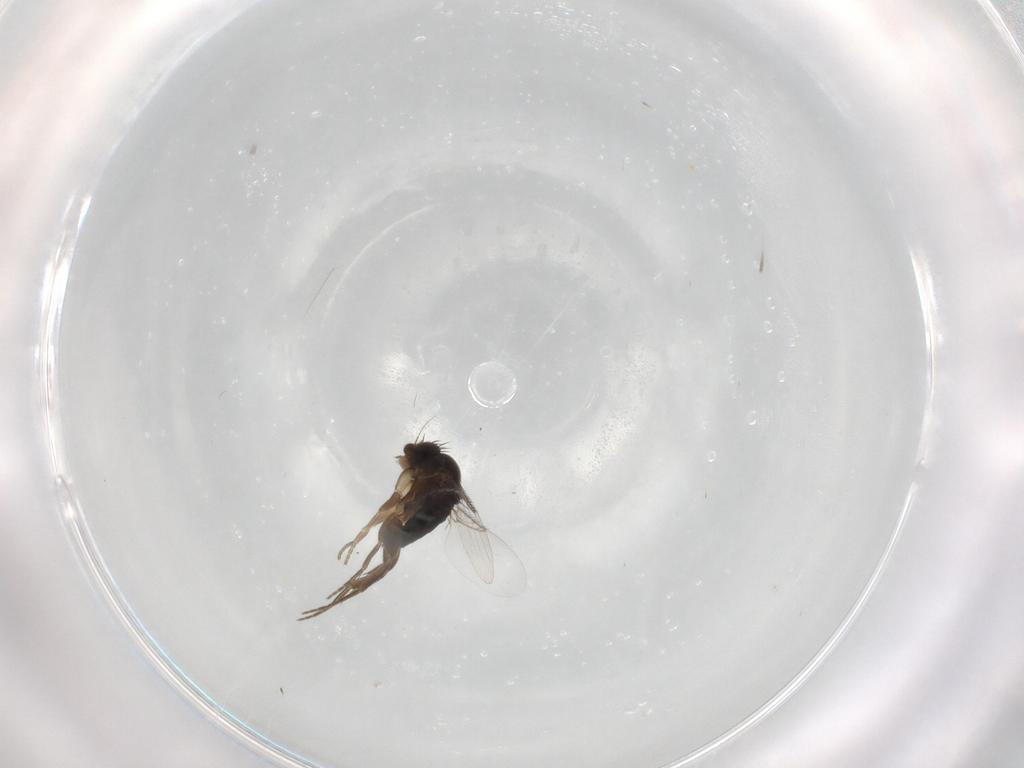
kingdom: Animalia
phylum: Arthropoda
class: Insecta
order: Diptera
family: Phoridae
